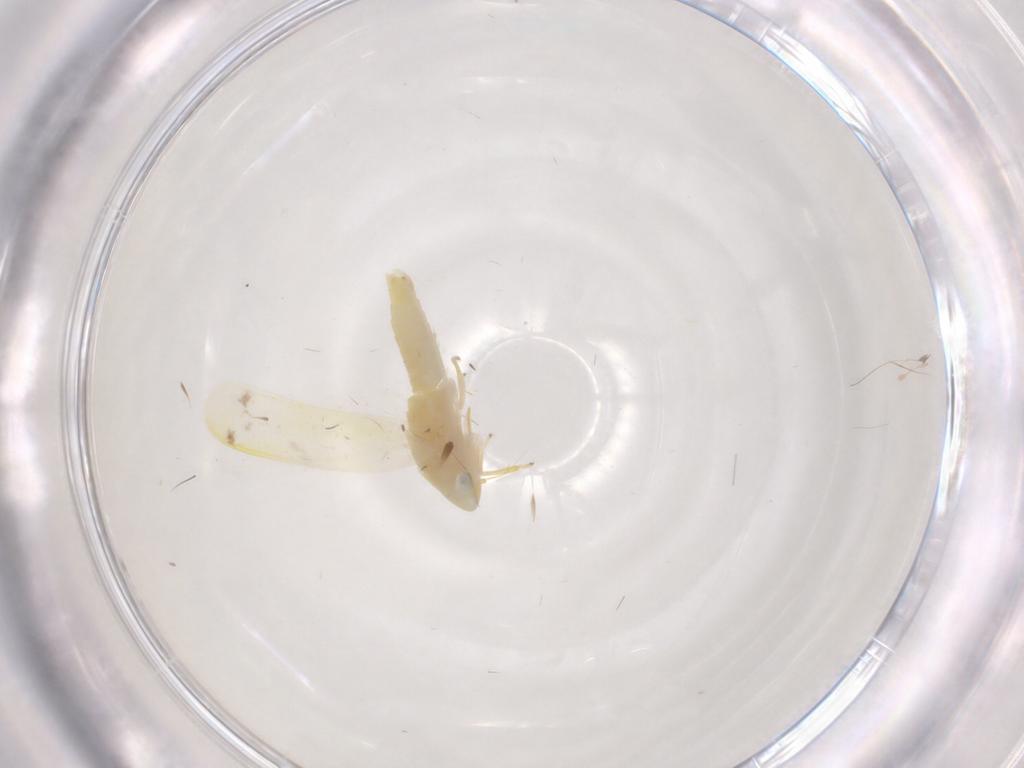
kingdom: Animalia
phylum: Arthropoda
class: Insecta
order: Hemiptera
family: Cicadellidae
